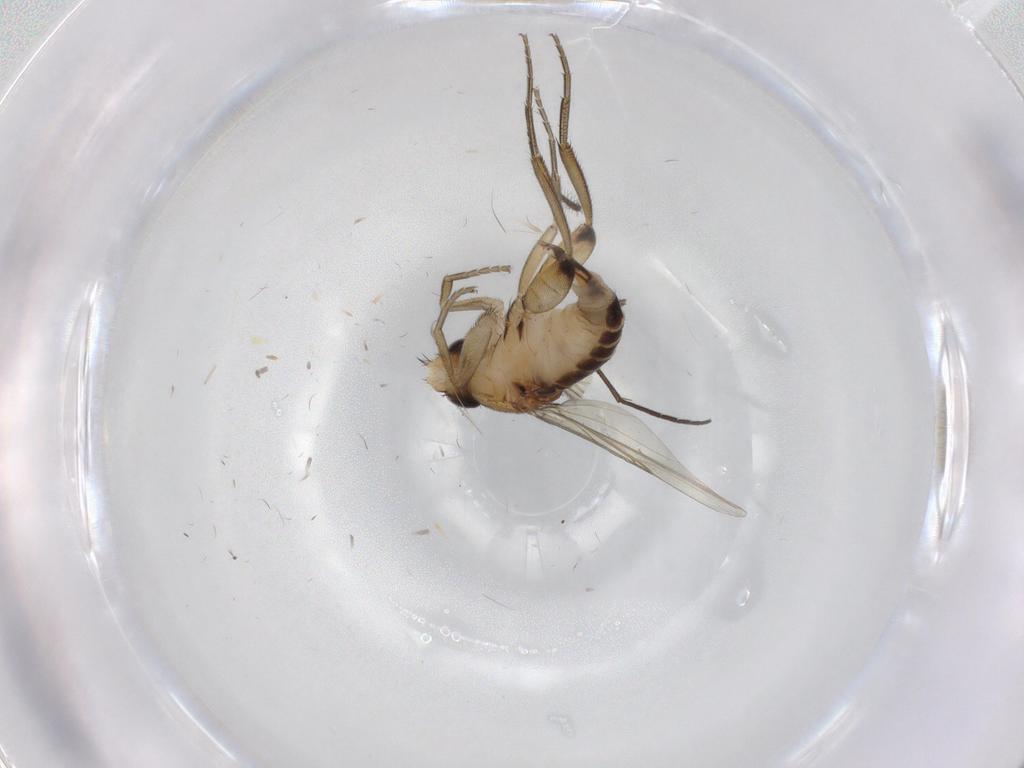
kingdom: Animalia
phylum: Arthropoda
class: Insecta
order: Diptera
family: Phoridae
